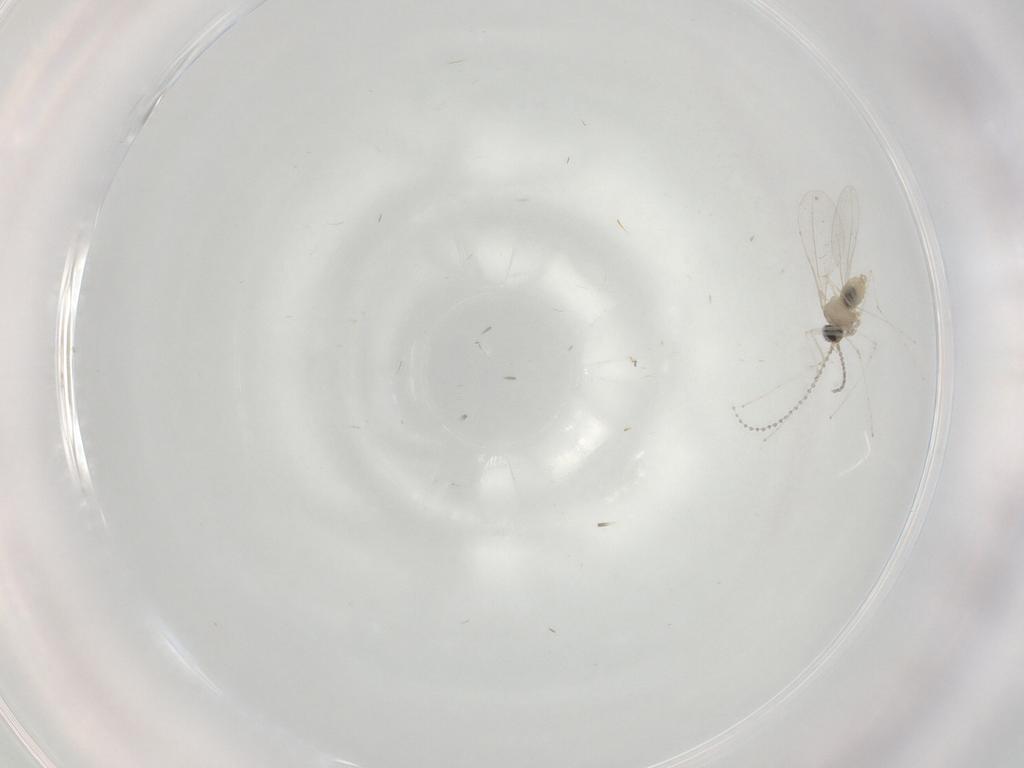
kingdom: Animalia
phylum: Arthropoda
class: Insecta
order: Diptera
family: Cecidomyiidae
